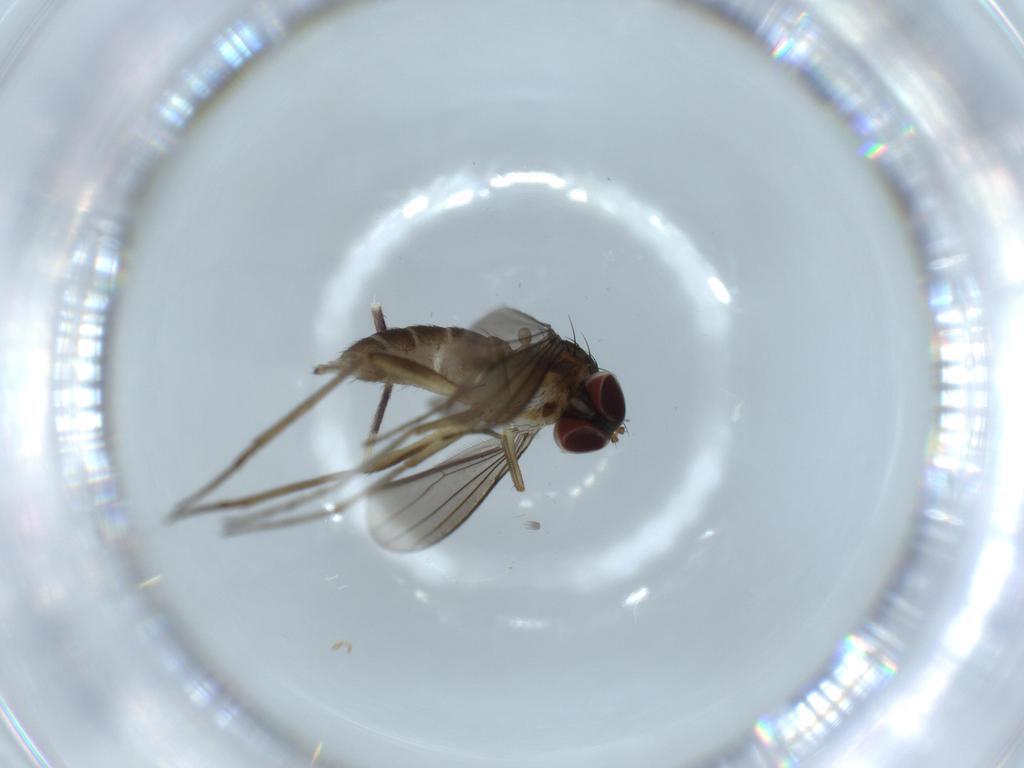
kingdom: Animalia
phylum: Arthropoda
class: Insecta
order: Diptera
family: Dolichopodidae
